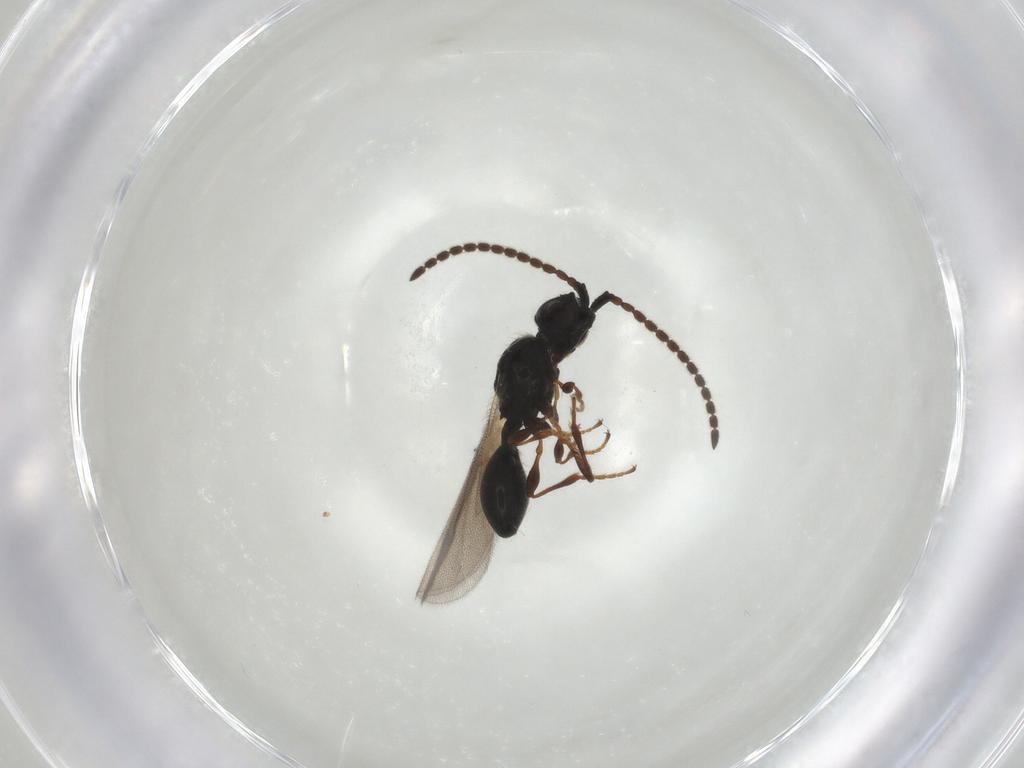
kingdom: Animalia
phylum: Arthropoda
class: Insecta
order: Hymenoptera
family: Diapriidae
